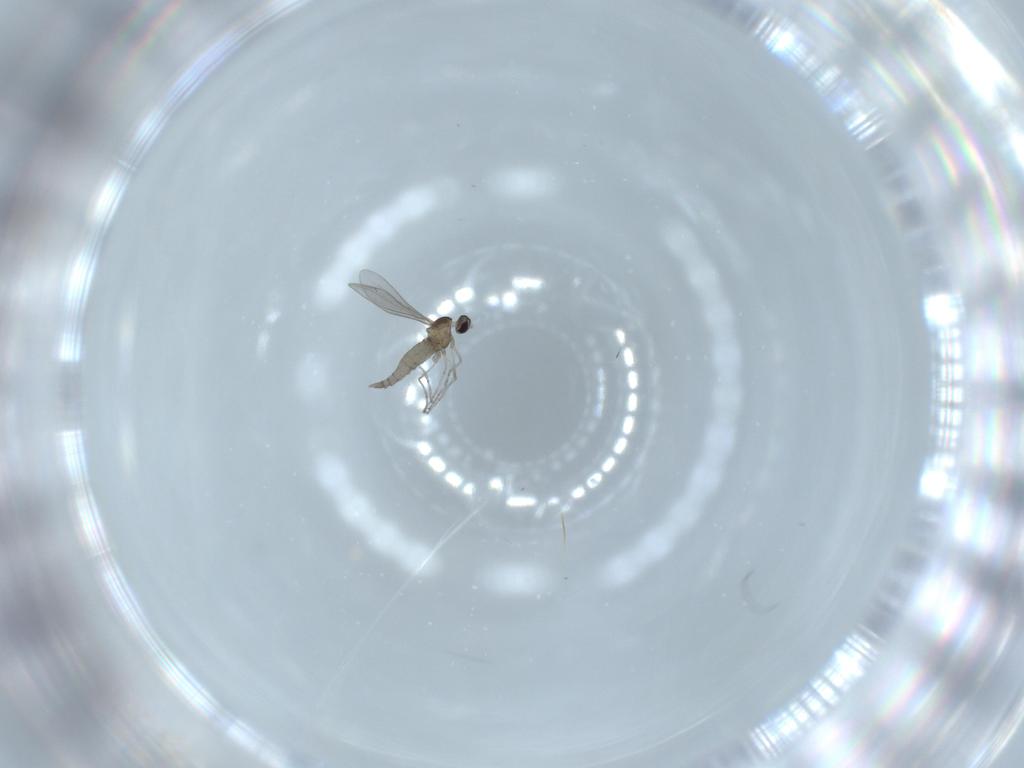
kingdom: Animalia
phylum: Arthropoda
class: Insecta
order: Diptera
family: Cecidomyiidae
